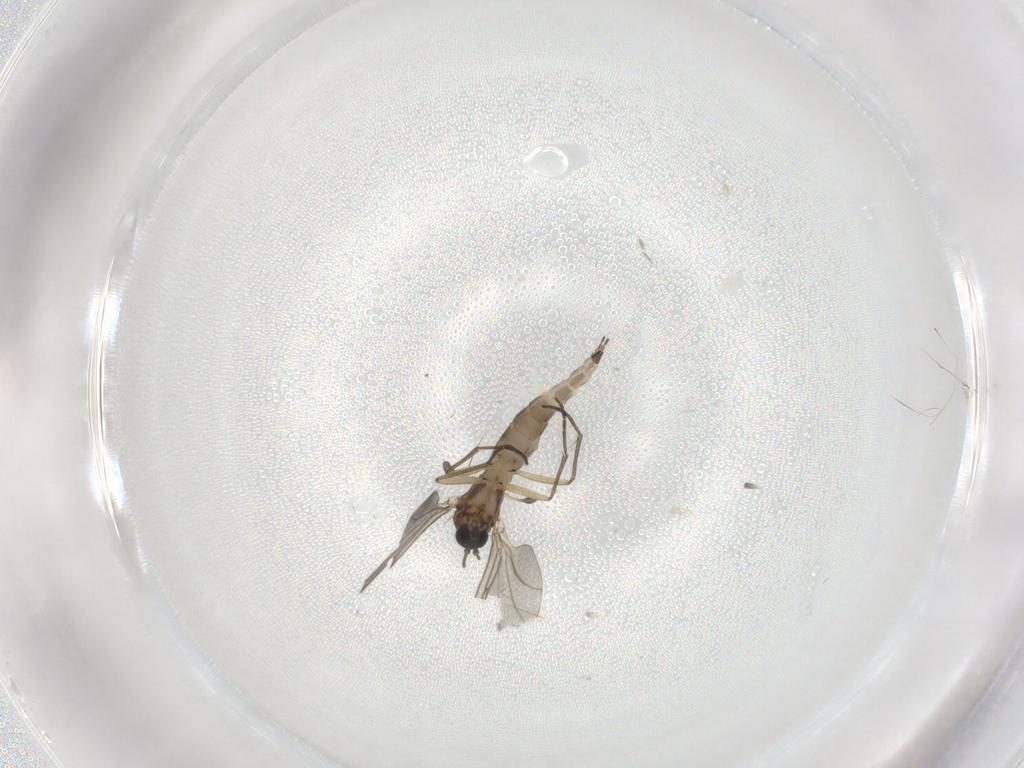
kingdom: Animalia
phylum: Arthropoda
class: Insecta
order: Diptera
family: Sciaridae
